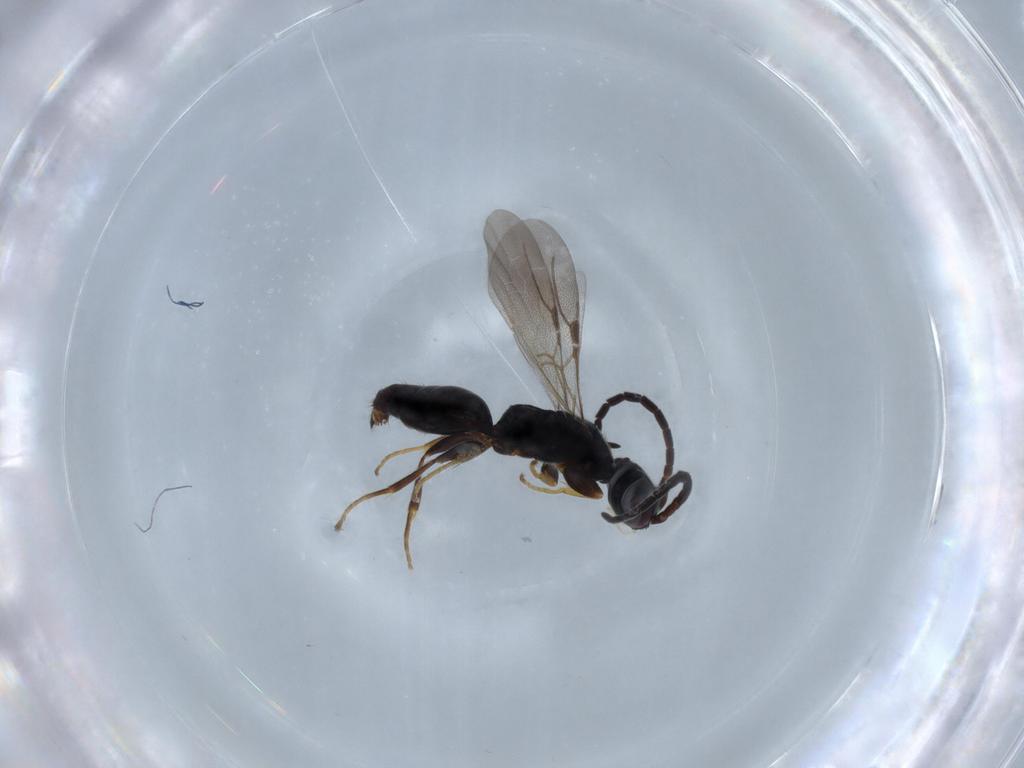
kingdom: Animalia
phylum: Arthropoda
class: Insecta
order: Hymenoptera
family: Bethylidae
